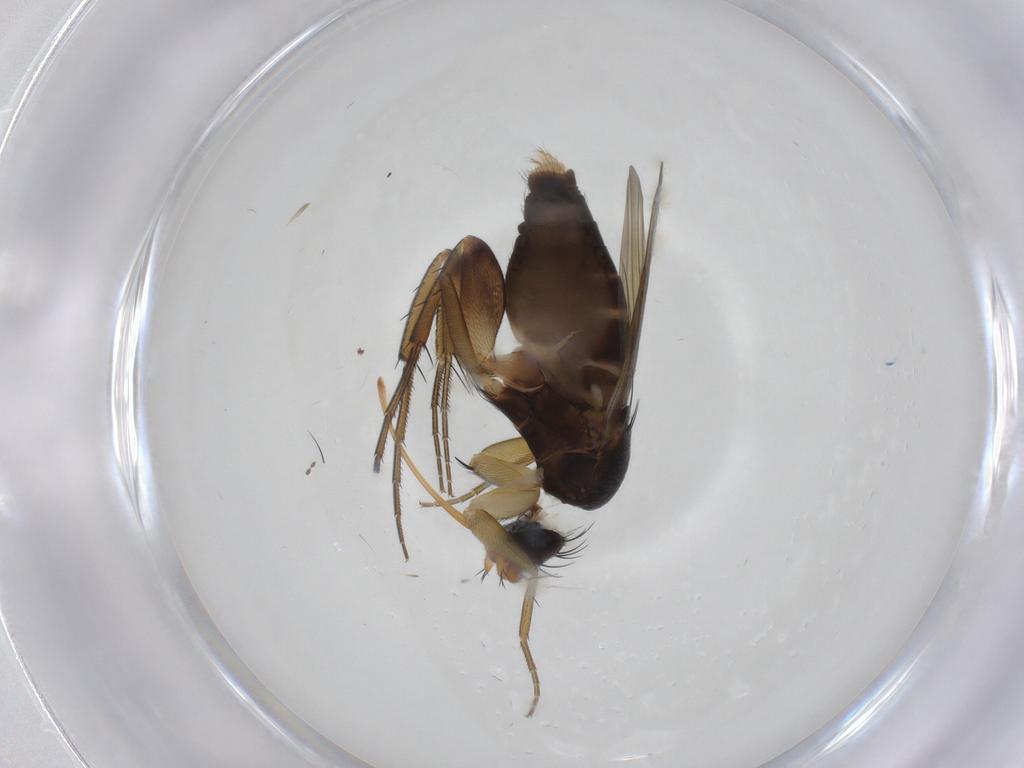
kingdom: Animalia
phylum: Arthropoda
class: Insecta
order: Diptera
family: Phoridae
